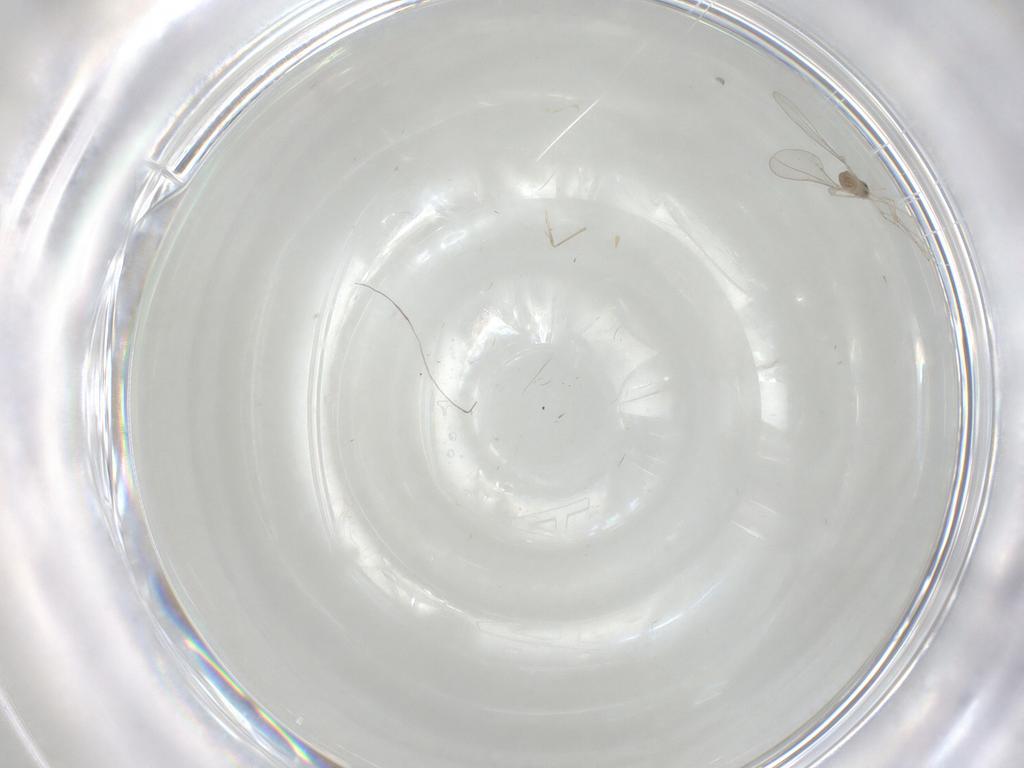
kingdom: Animalia
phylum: Arthropoda
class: Insecta
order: Diptera
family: Cecidomyiidae
